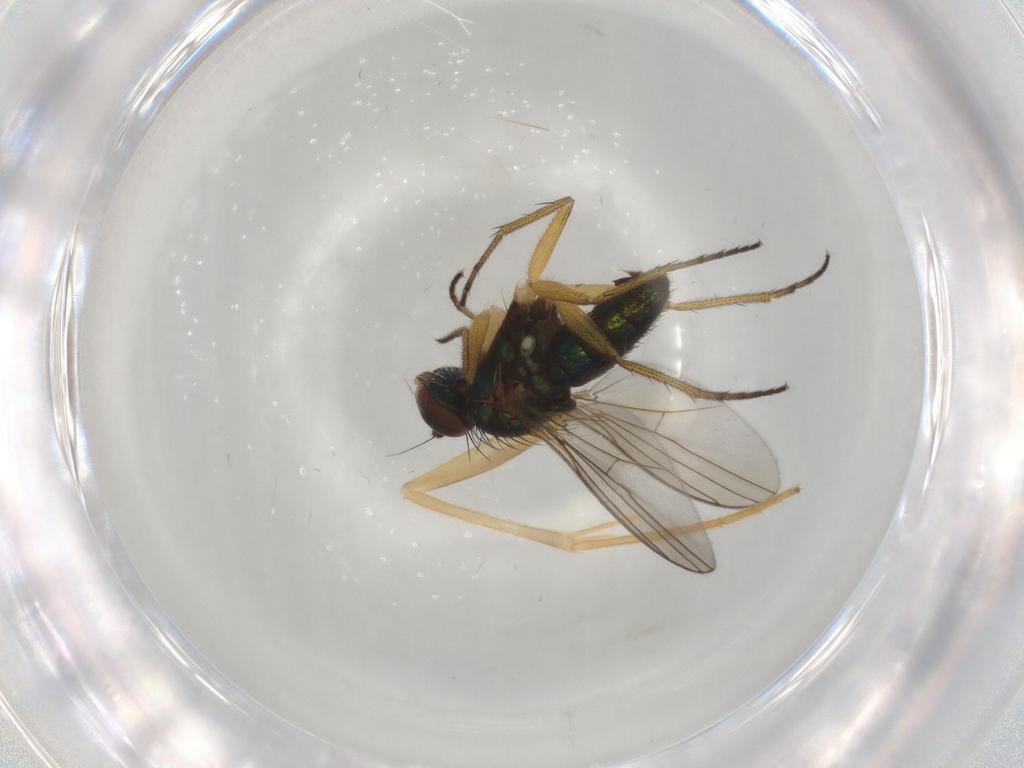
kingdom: Animalia
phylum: Arthropoda
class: Insecta
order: Diptera
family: Dolichopodidae
